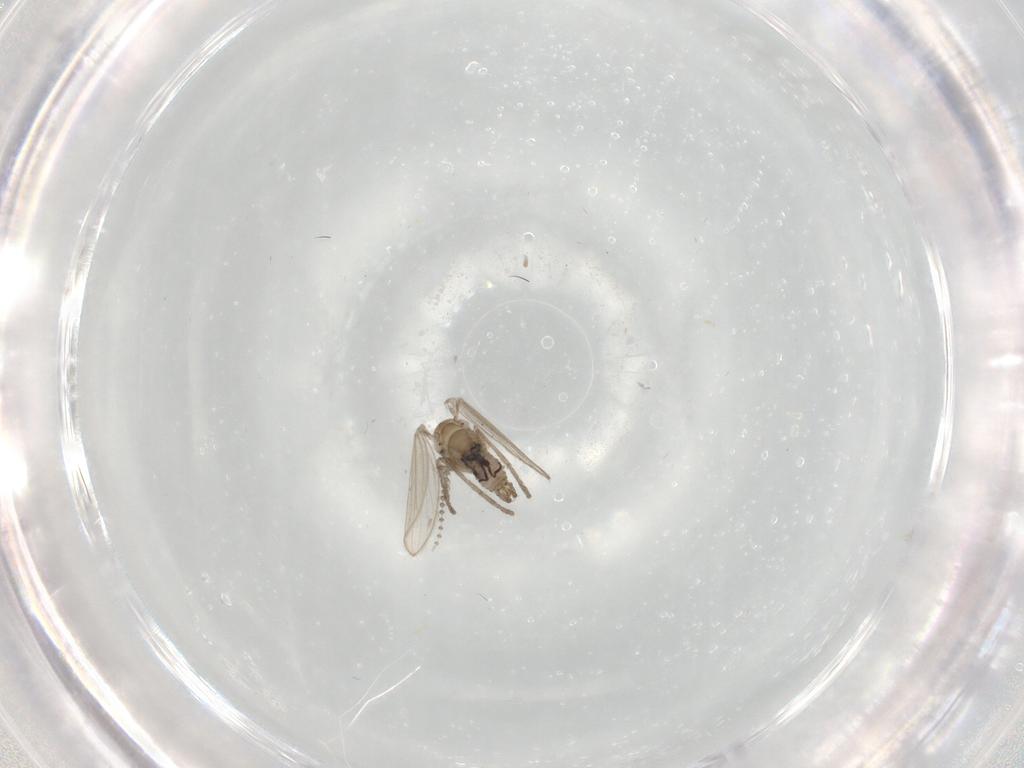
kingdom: Animalia
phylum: Arthropoda
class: Insecta
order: Diptera
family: Psychodidae
